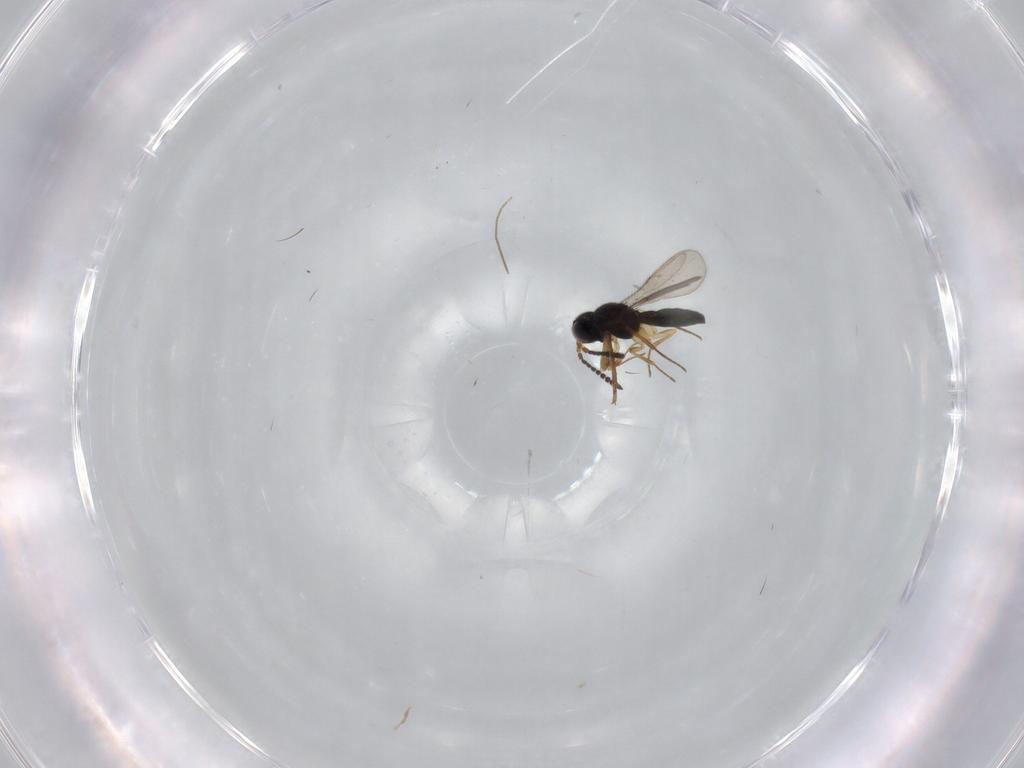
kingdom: Animalia
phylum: Arthropoda
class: Insecta
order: Hymenoptera
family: Scelionidae
